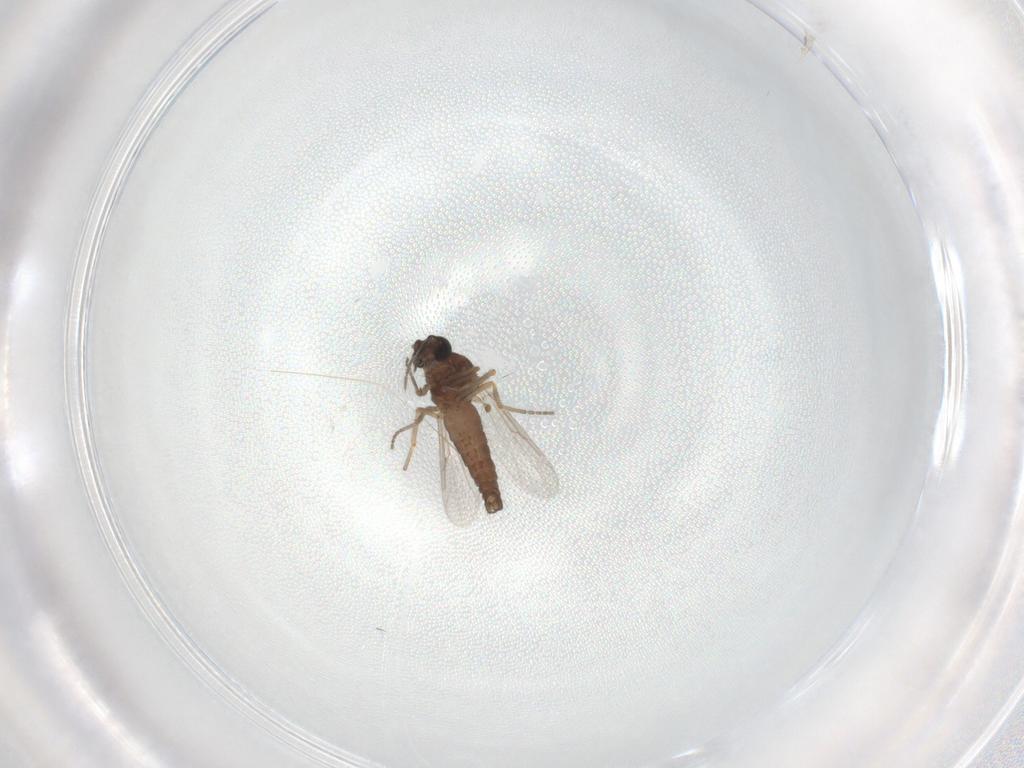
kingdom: Animalia
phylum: Arthropoda
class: Insecta
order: Diptera
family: Ceratopogonidae
